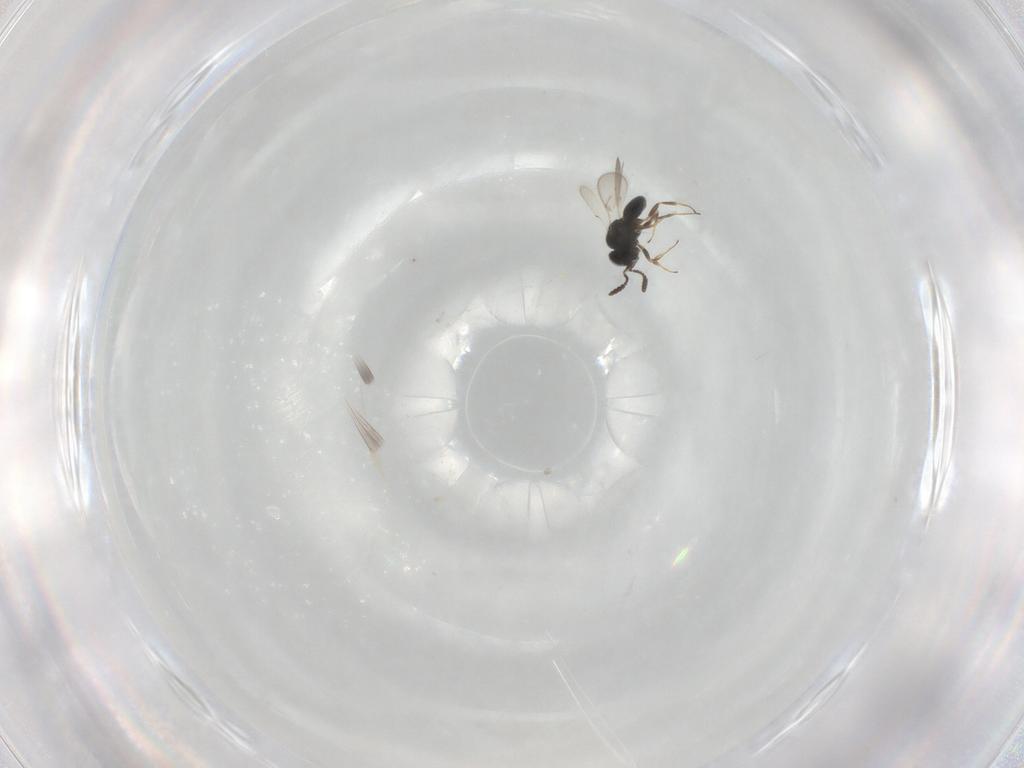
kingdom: Animalia
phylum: Arthropoda
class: Insecta
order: Hymenoptera
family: Scelionidae
